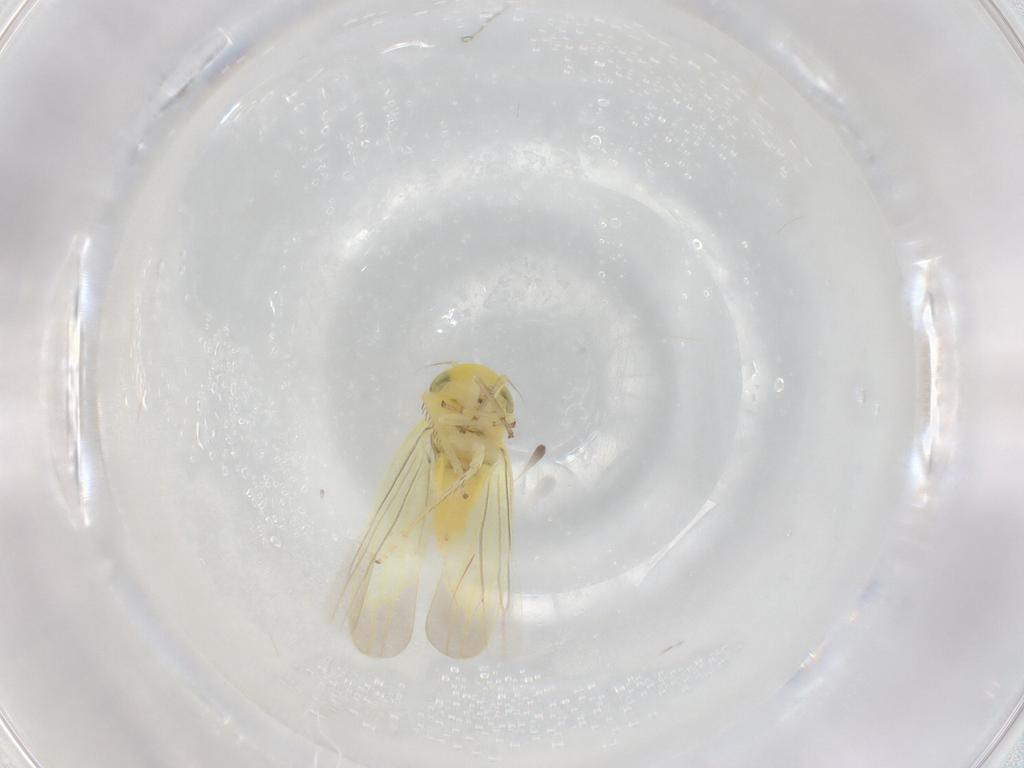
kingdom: Animalia
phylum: Arthropoda
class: Insecta
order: Hemiptera
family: Cicadellidae
